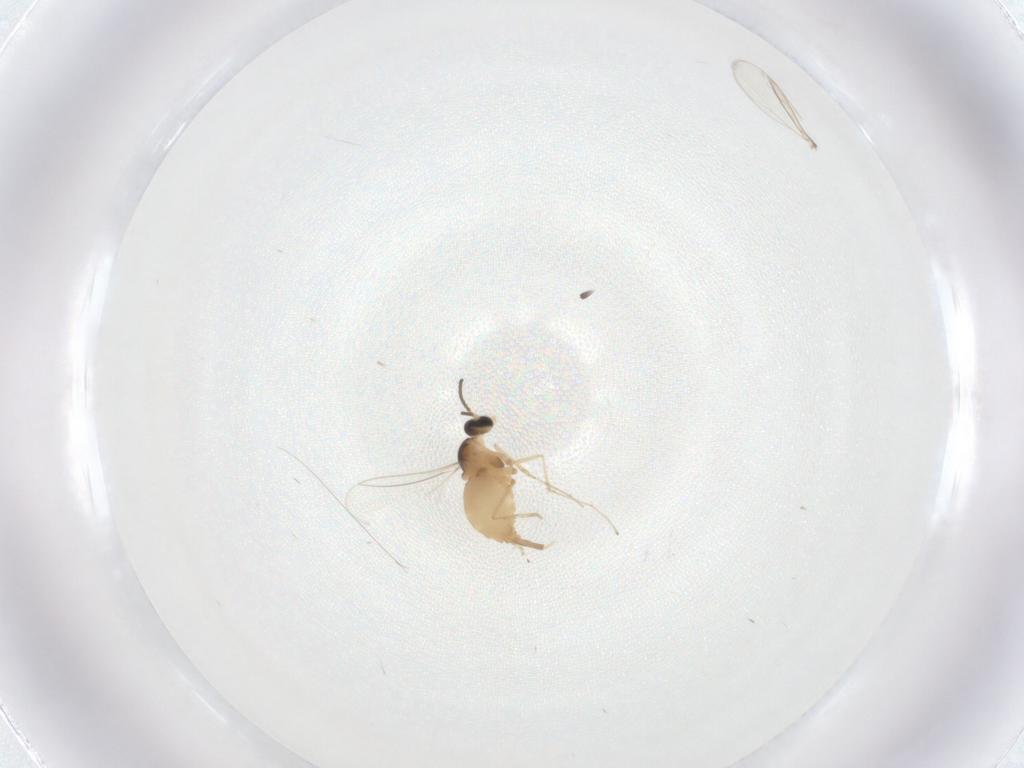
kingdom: Animalia
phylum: Arthropoda
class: Insecta
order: Diptera
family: Cecidomyiidae
